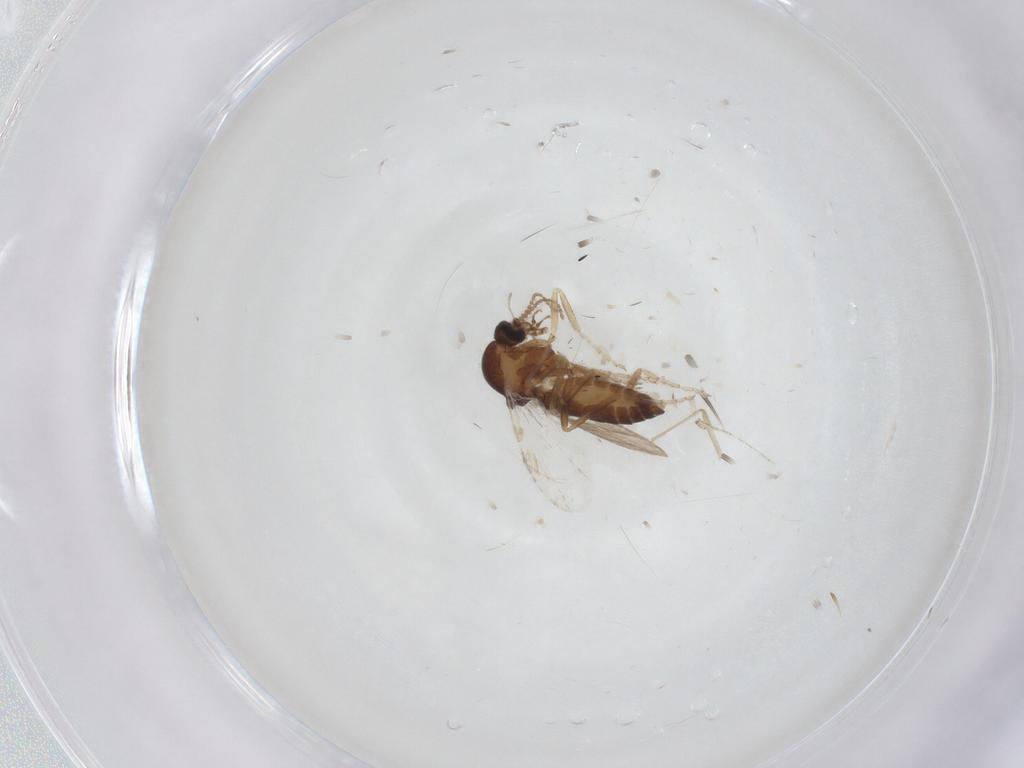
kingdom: Animalia
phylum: Arthropoda
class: Insecta
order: Diptera
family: Ceratopogonidae
